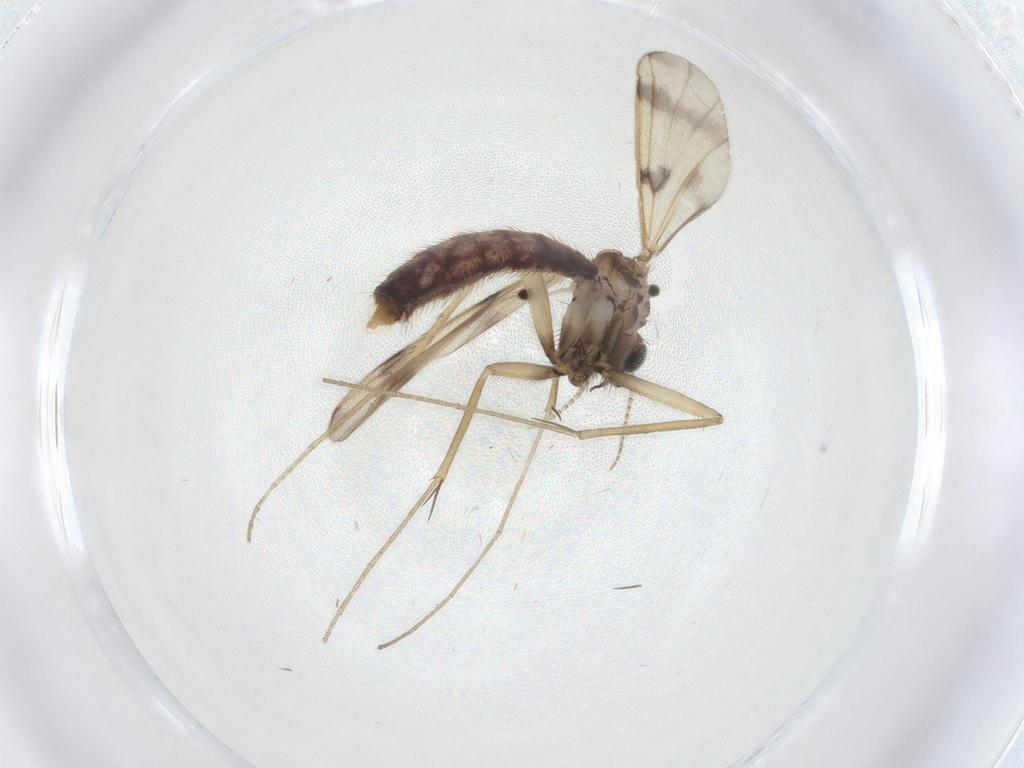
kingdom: Animalia
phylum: Arthropoda
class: Insecta
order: Diptera
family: Mycetophilidae
